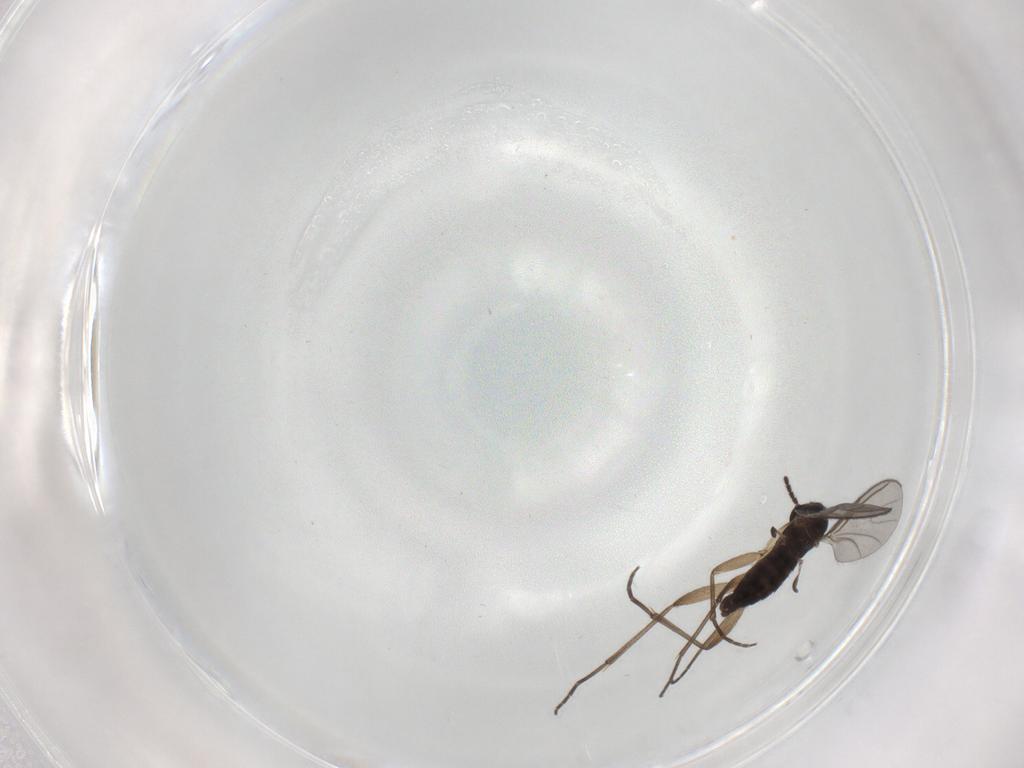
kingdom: Animalia
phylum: Arthropoda
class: Insecta
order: Diptera
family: Sciaridae
